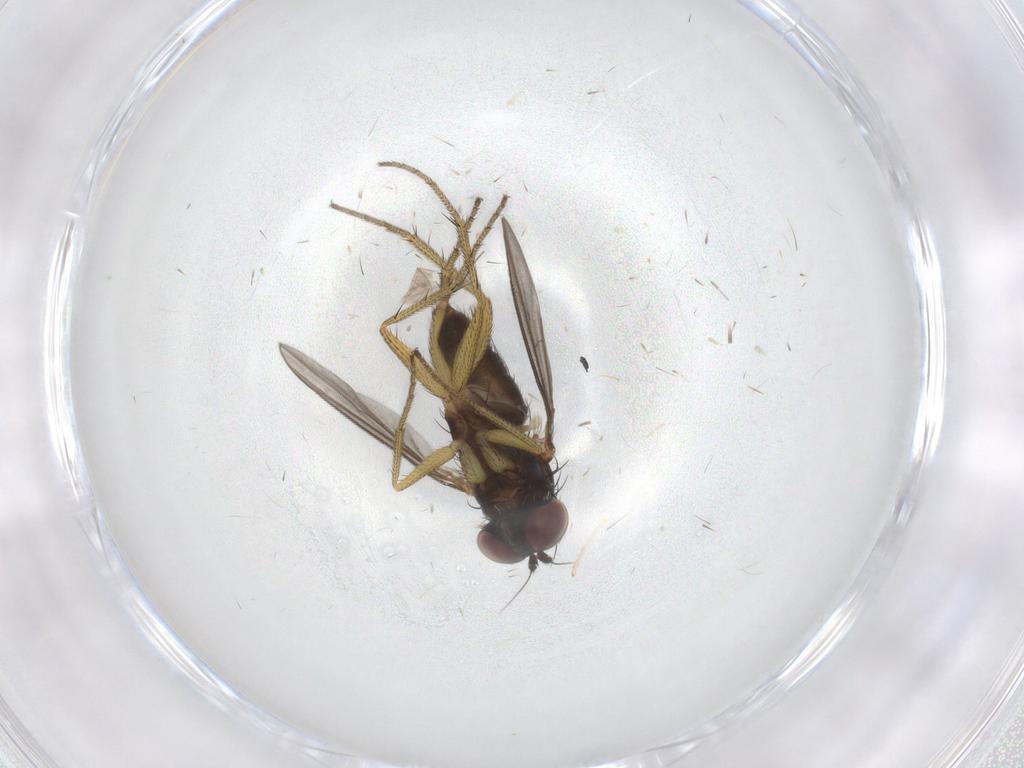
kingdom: Animalia
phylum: Arthropoda
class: Insecta
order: Diptera
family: Dolichopodidae
